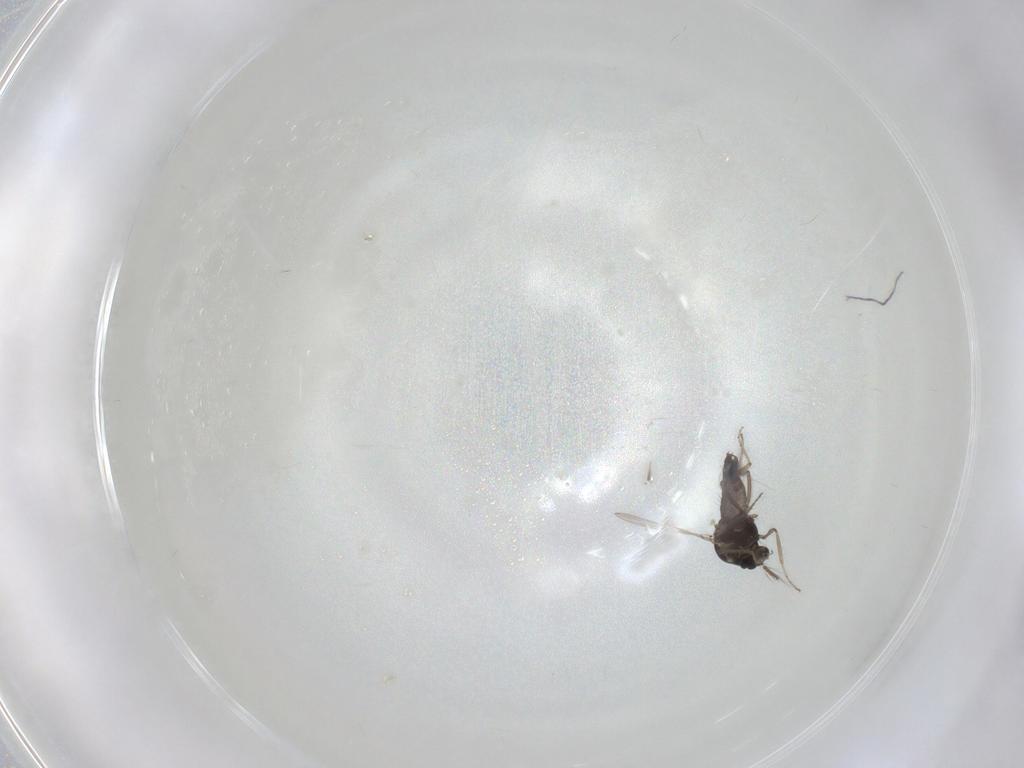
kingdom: Animalia
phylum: Arthropoda
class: Insecta
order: Diptera
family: Ceratopogonidae
